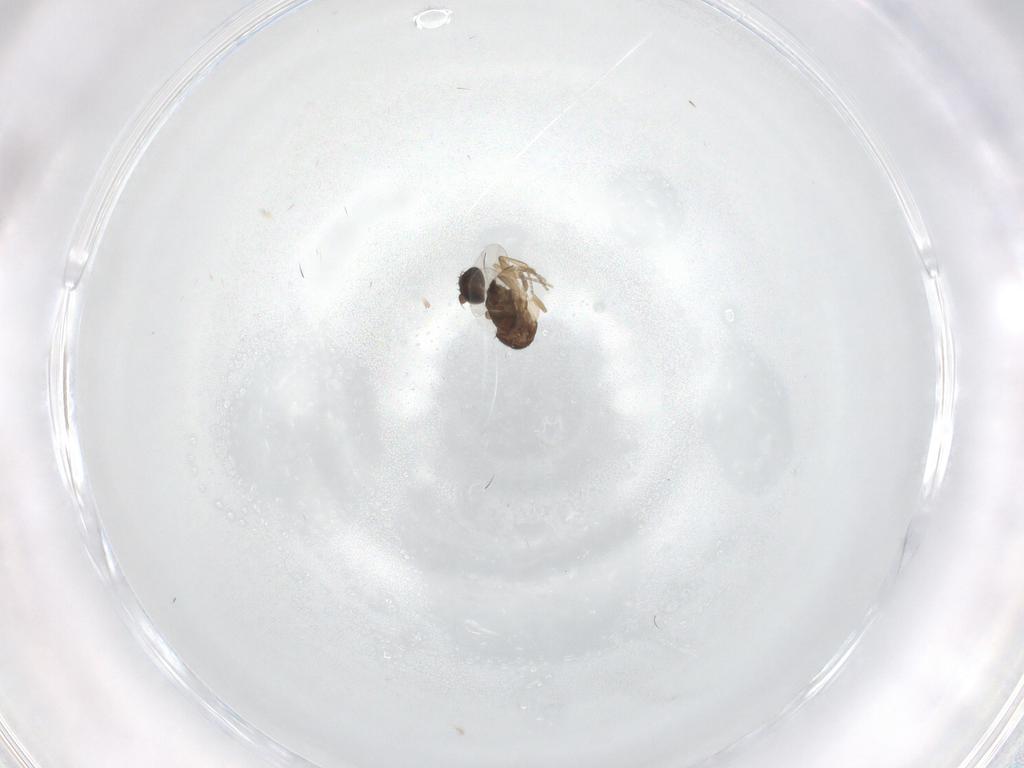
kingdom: Animalia
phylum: Arthropoda
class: Insecta
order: Diptera
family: Phoridae
